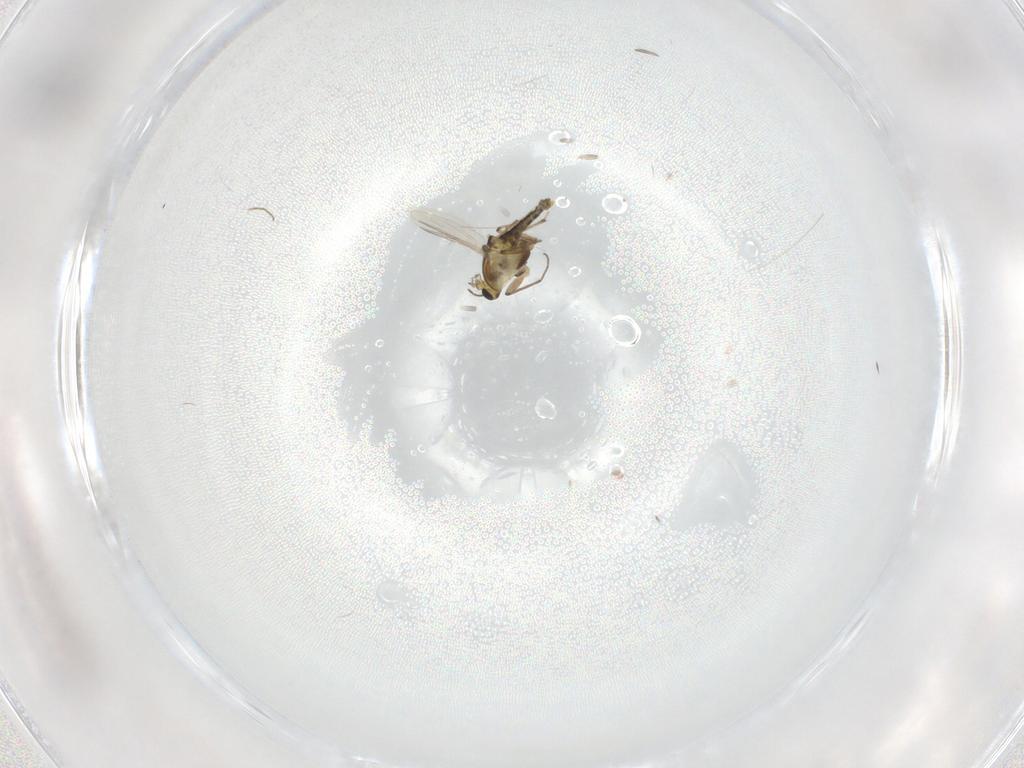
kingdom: Animalia
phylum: Arthropoda
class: Insecta
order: Diptera
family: Chironomidae
